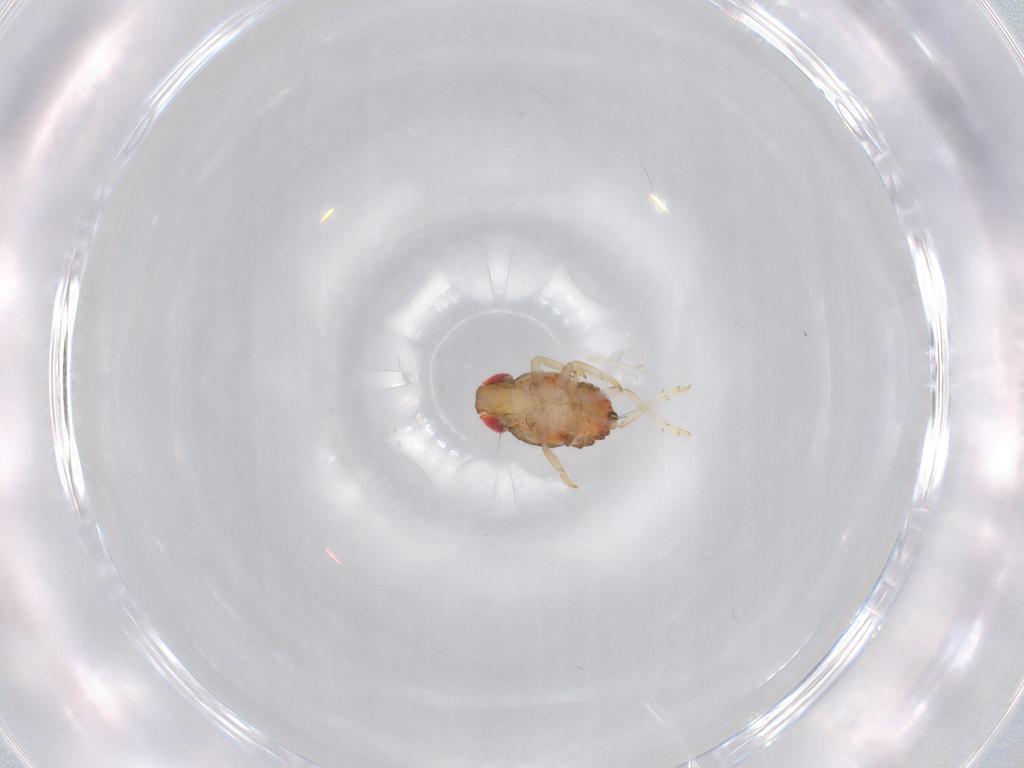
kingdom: Animalia
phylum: Arthropoda
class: Insecta
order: Hemiptera
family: Issidae
